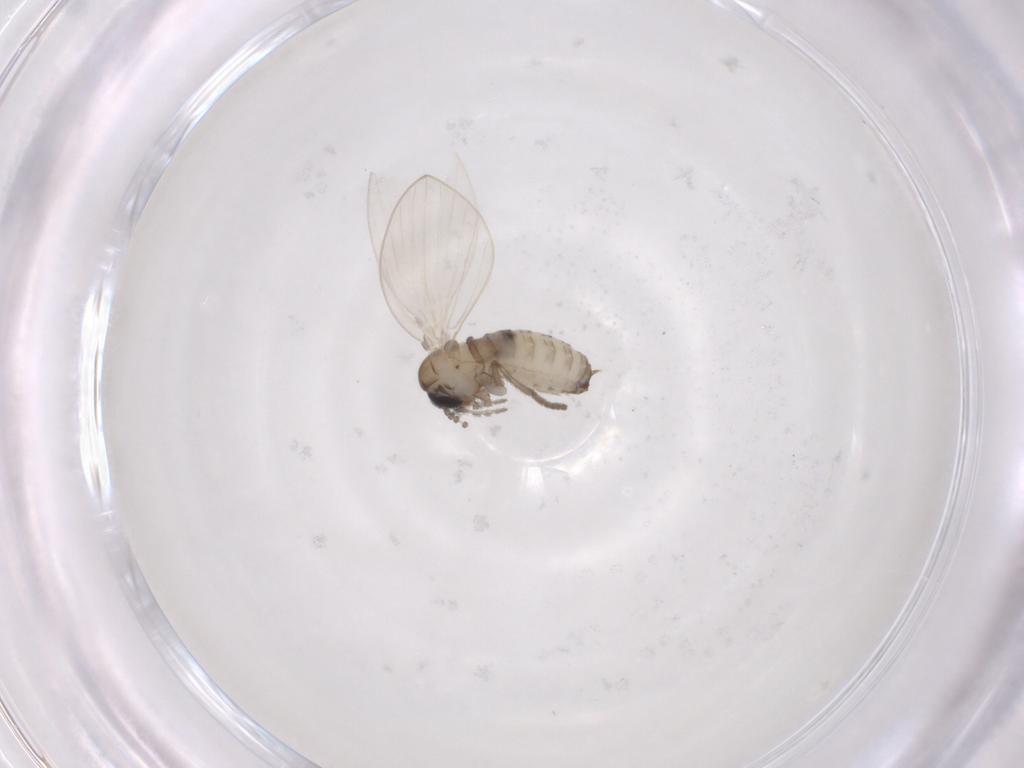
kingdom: Animalia
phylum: Arthropoda
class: Insecta
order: Diptera
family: Psychodidae
